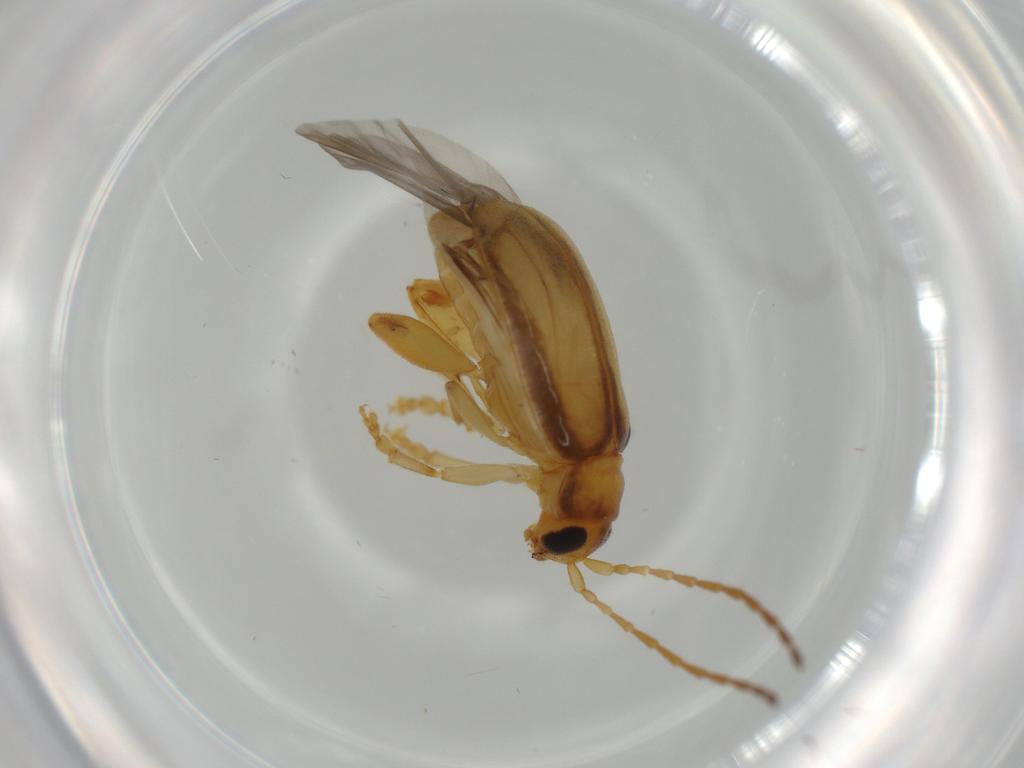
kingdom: Animalia
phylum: Arthropoda
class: Insecta
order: Coleoptera
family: Chrysomelidae
